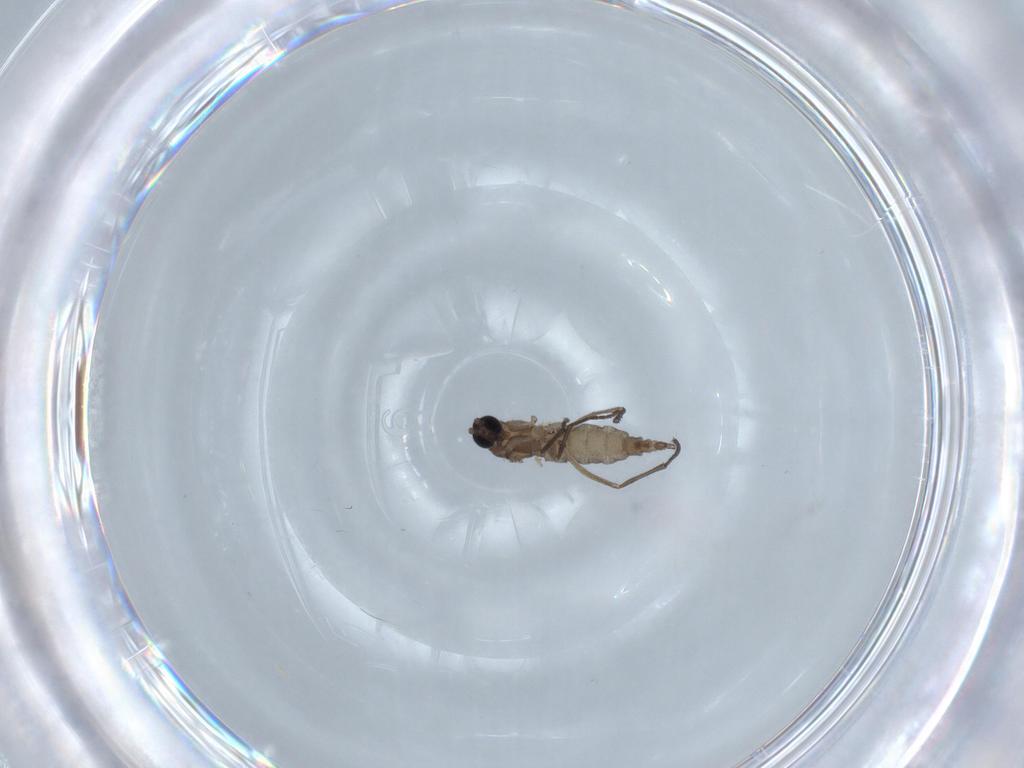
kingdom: Animalia
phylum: Arthropoda
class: Insecta
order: Diptera
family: Sciaridae
